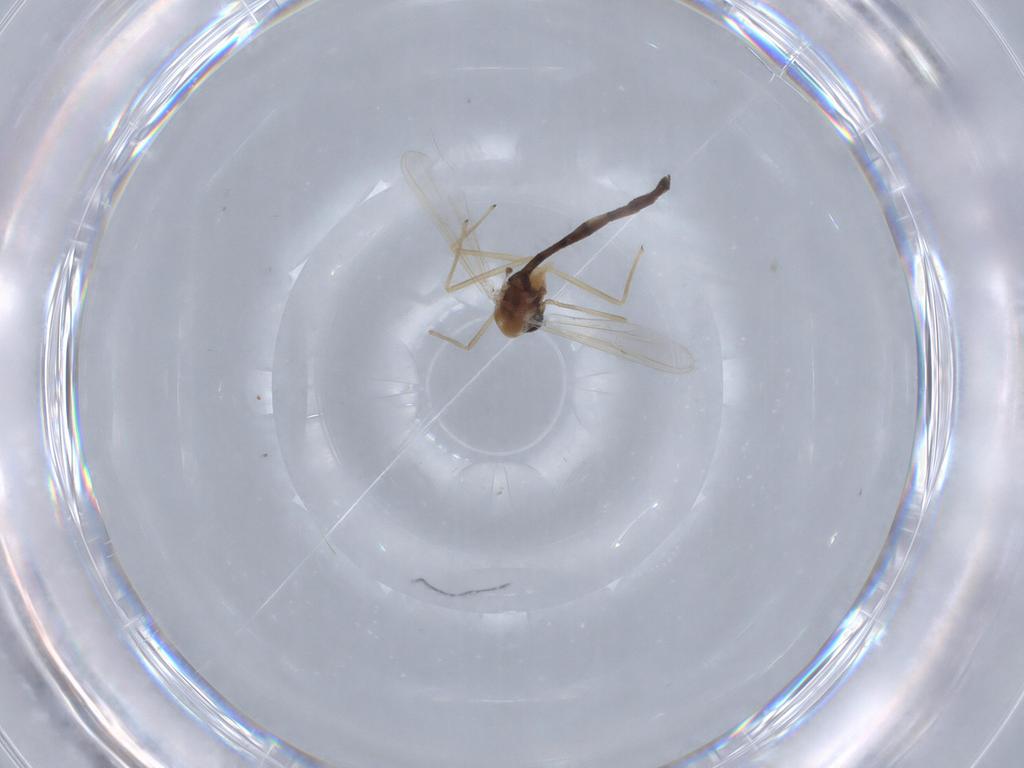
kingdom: Animalia
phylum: Arthropoda
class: Insecta
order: Diptera
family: Chironomidae
